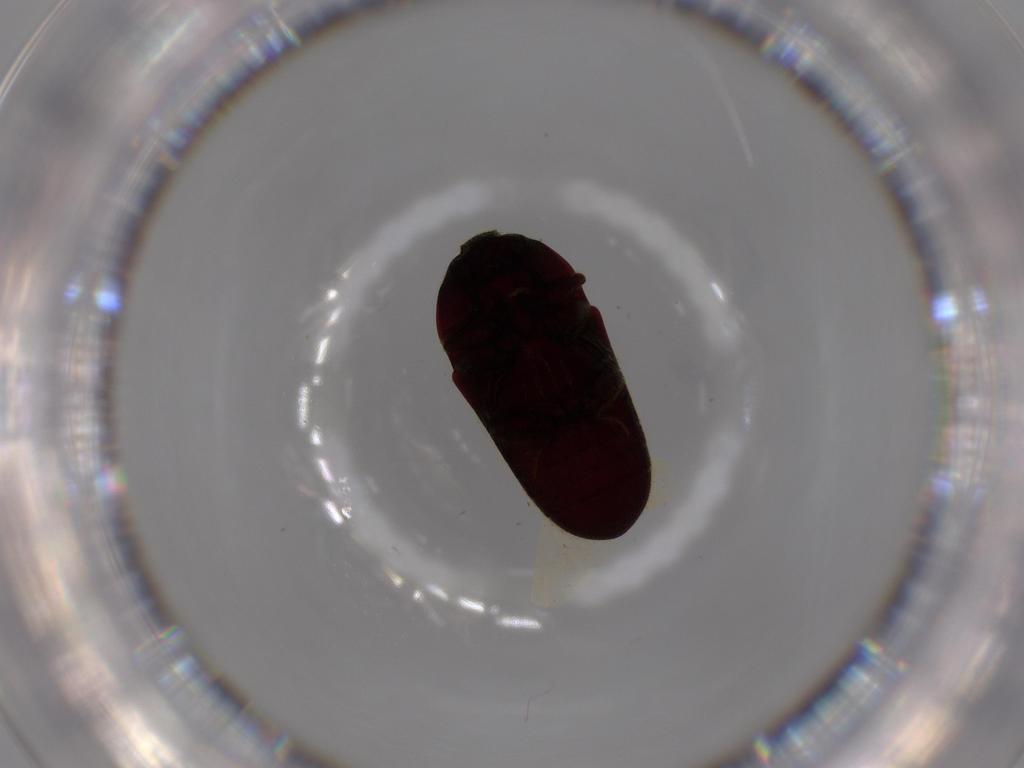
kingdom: Animalia
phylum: Arthropoda
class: Insecta
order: Coleoptera
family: Throscidae
